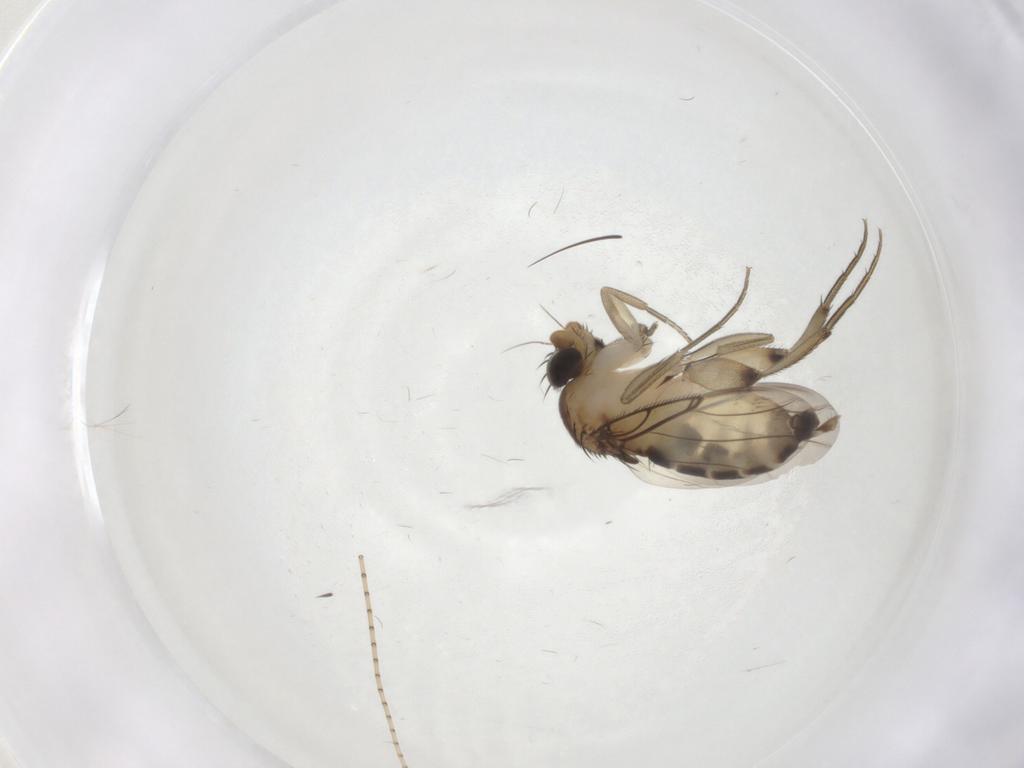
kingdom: Animalia
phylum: Arthropoda
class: Insecta
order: Diptera
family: Phoridae
